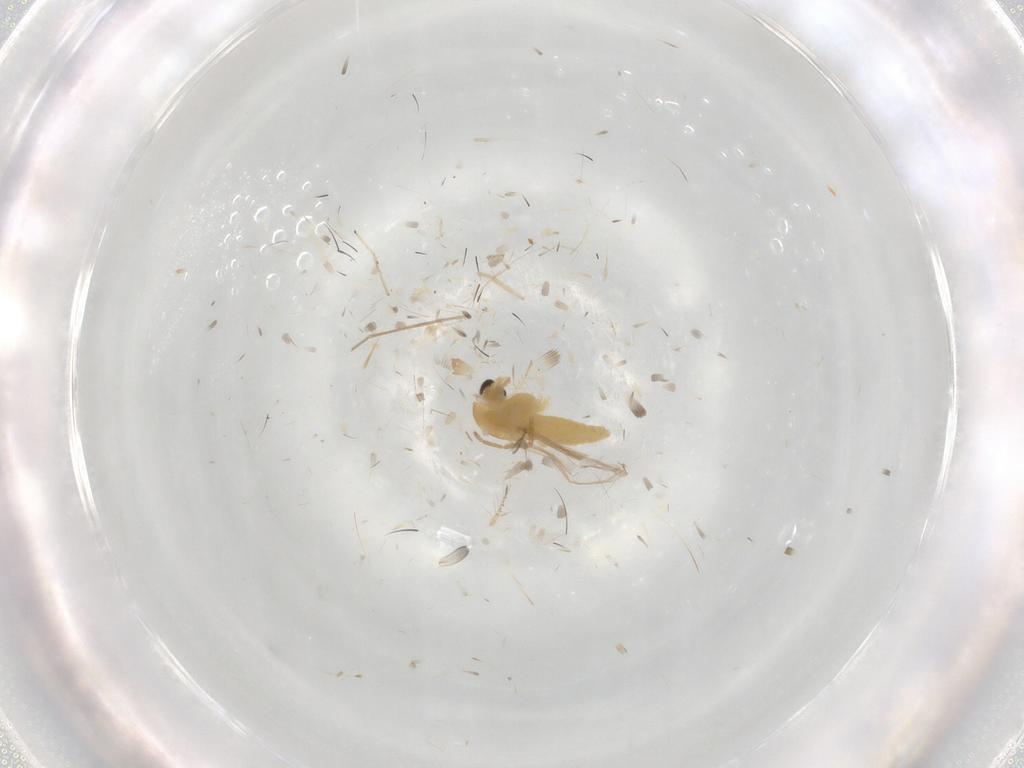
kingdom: Animalia
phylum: Arthropoda
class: Insecta
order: Diptera
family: Chironomidae
